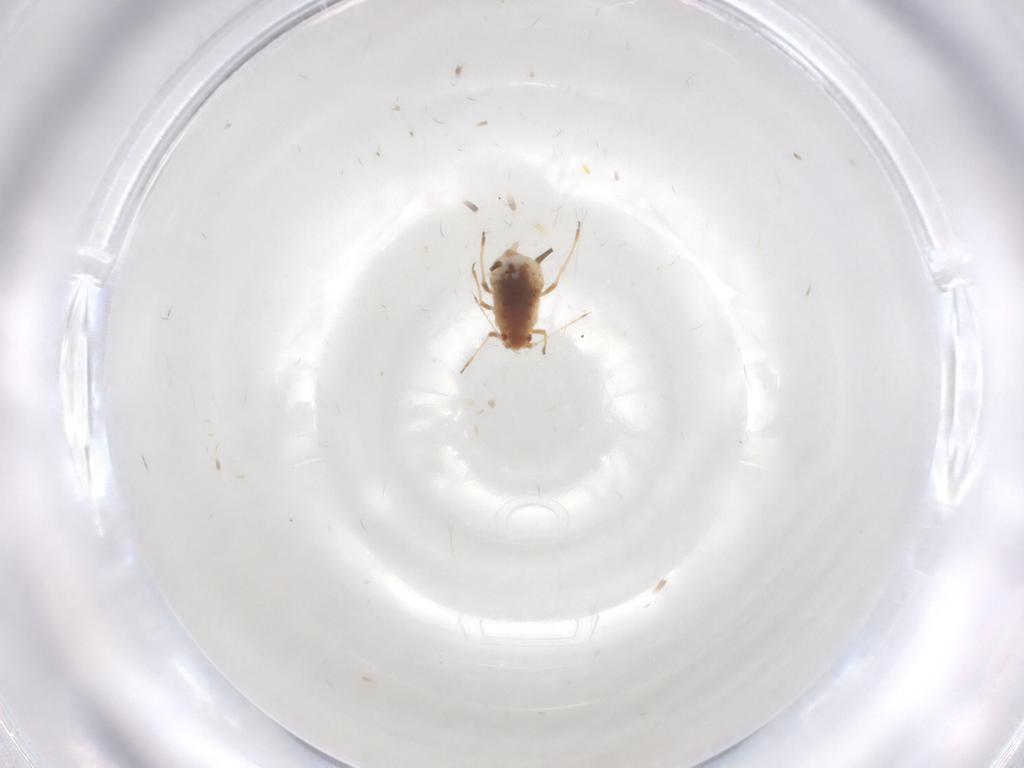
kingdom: Animalia
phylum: Arthropoda
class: Insecta
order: Hemiptera
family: Aphididae
